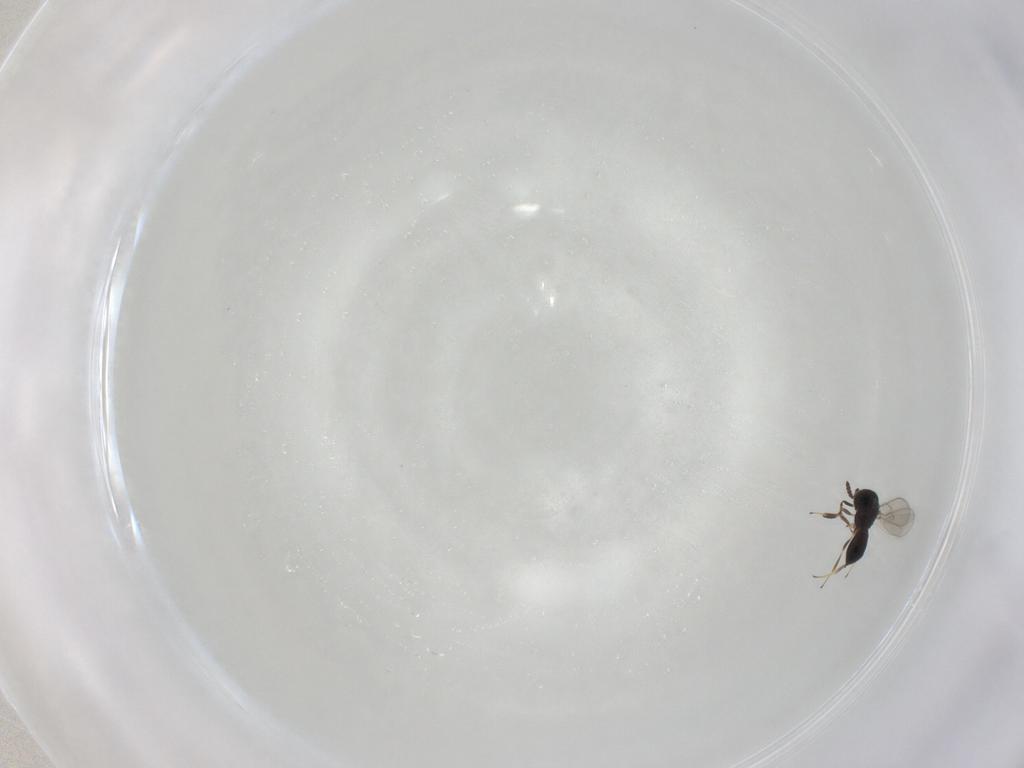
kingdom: Animalia
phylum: Arthropoda
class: Insecta
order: Hymenoptera
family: Scelionidae
